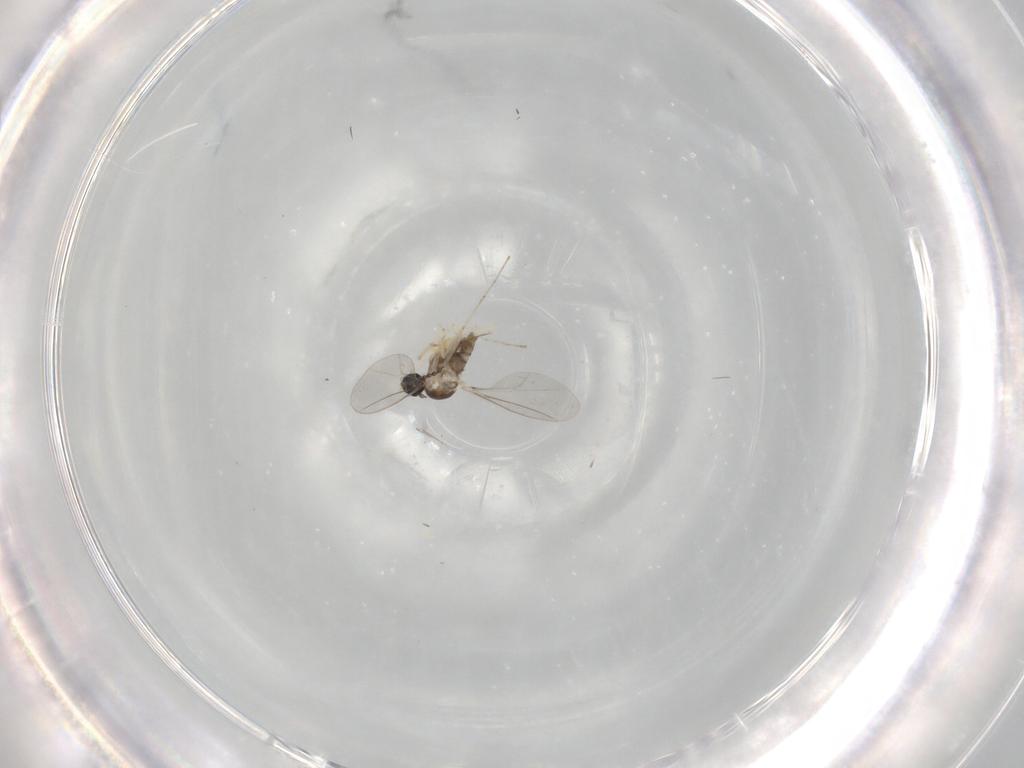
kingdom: Animalia
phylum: Arthropoda
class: Insecta
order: Diptera
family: Cecidomyiidae
